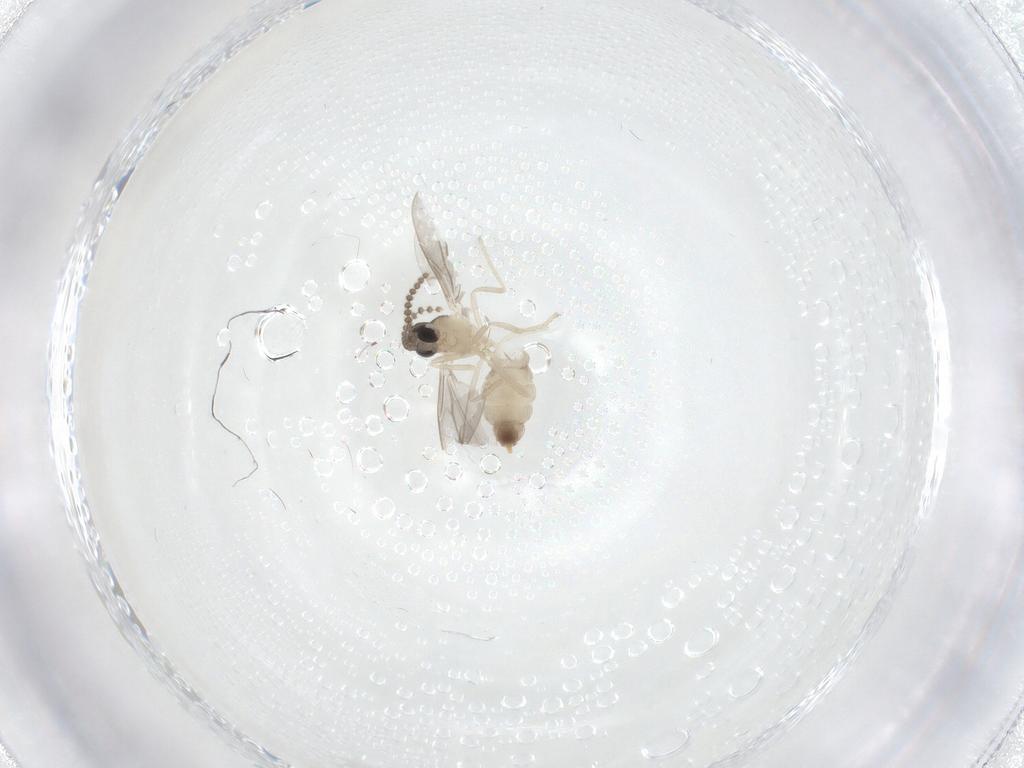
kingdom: Animalia
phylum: Arthropoda
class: Insecta
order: Diptera
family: Cecidomyiidae
